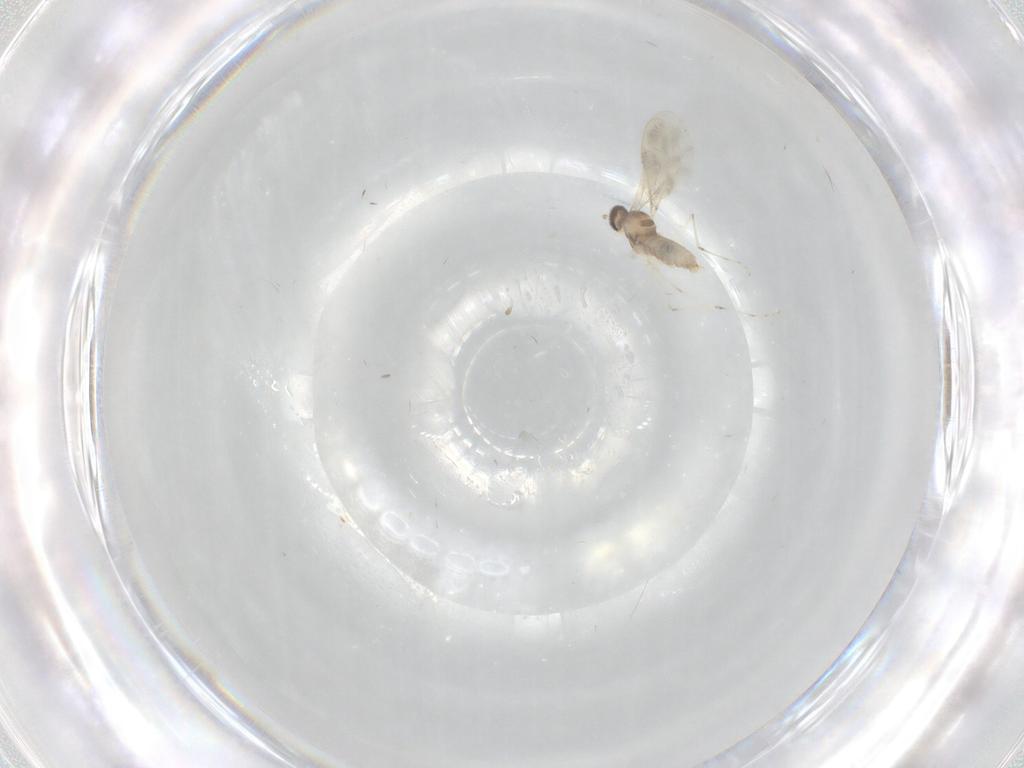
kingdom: Animalia
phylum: Arthropoda
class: Insecta
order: Diptera
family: Cecidomyiidae
